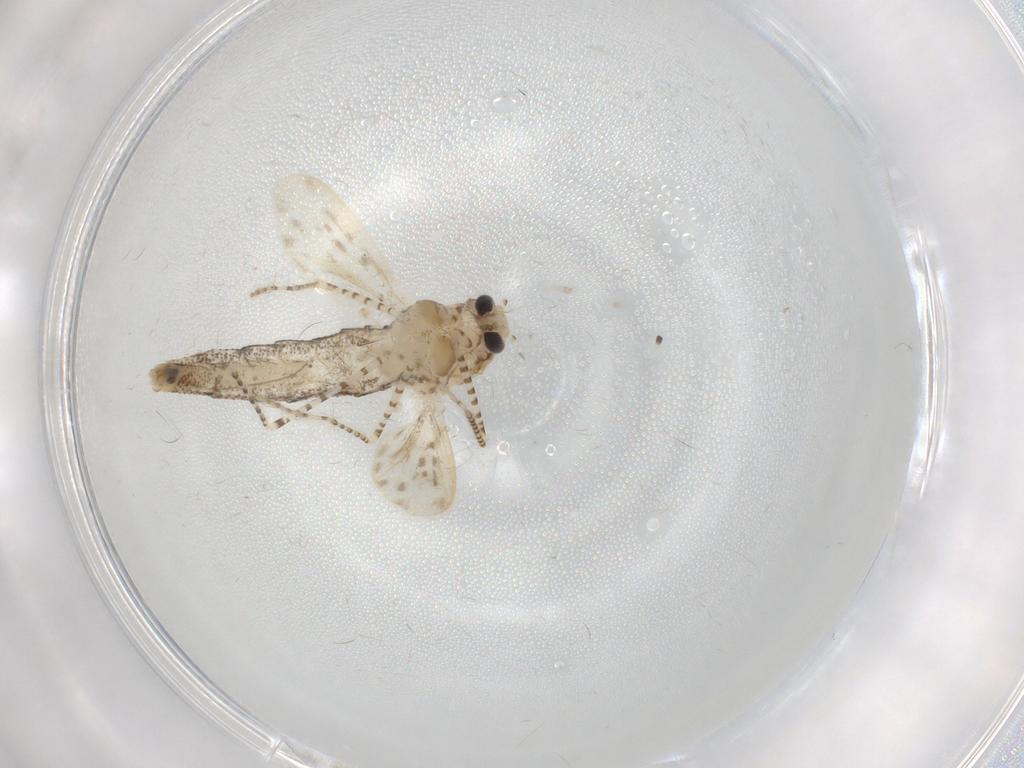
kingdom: Animalia
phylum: Arthropoda
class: Insecta
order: Diptera
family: Chaoboridae
